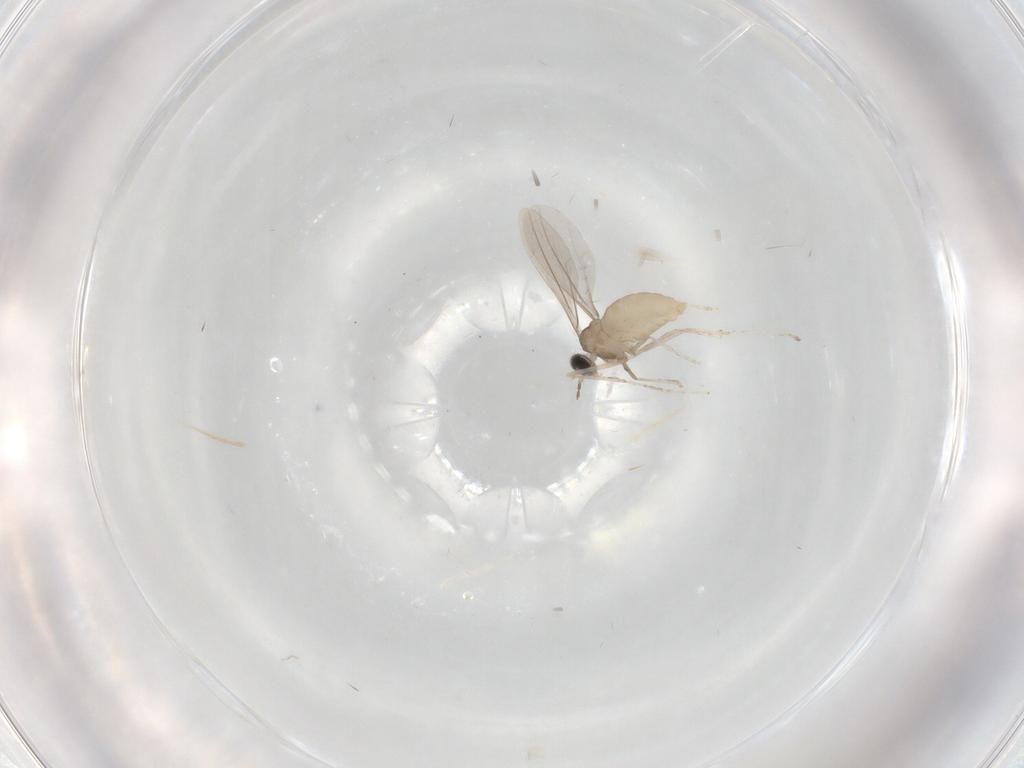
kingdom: Animalia
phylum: Arthropoda
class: Insecta
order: Diptera
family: Cecidomyiidae
